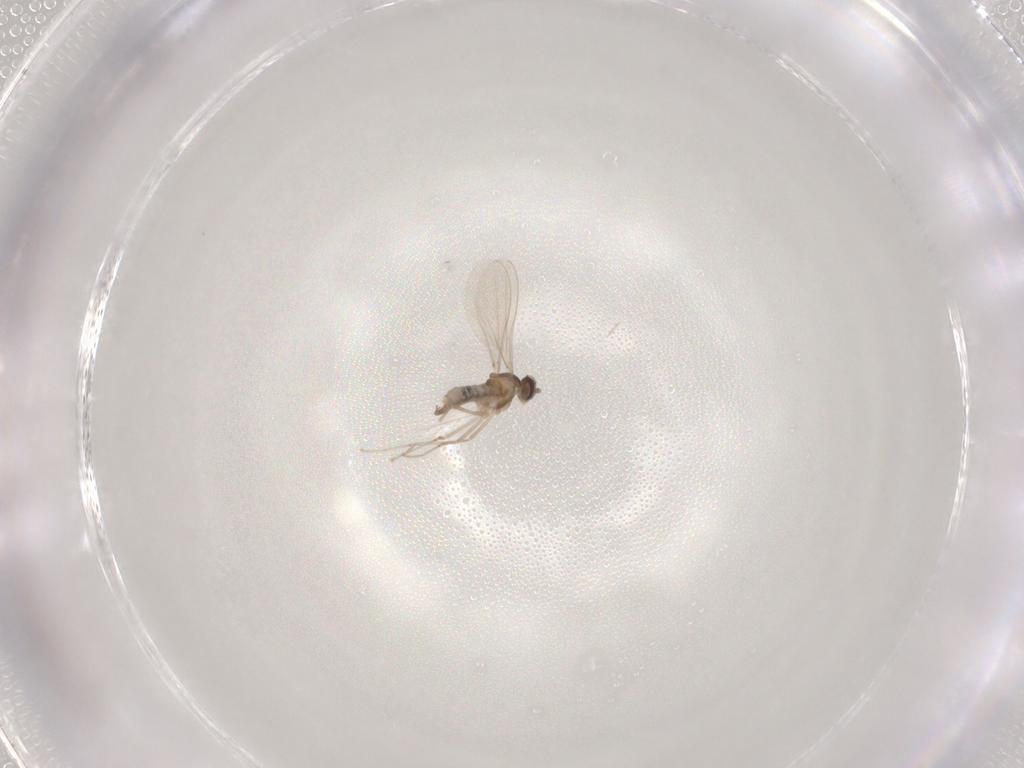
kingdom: Animalia
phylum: Arthropoda
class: Insecta
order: Diptera
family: Cecidomyiidae
